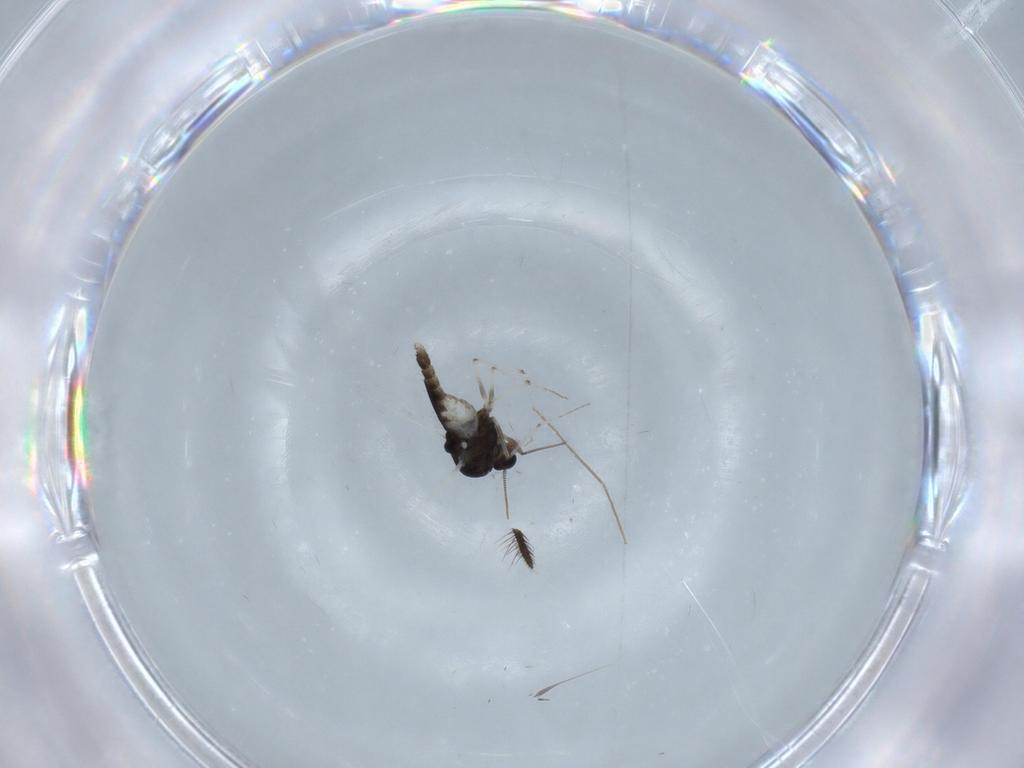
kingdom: Animalia
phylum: Arthropoda
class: Insecta
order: Diptera
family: Chironomidae
